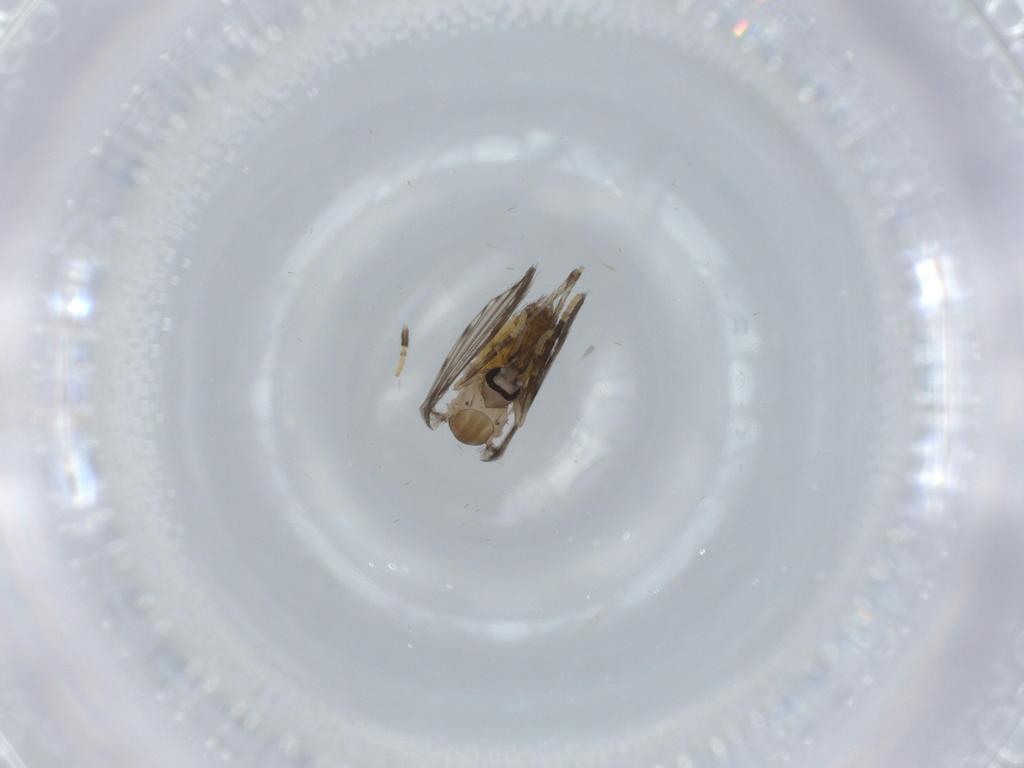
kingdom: Animalia
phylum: Arthropoda
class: Insecta
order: Diptera
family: Psychodidae
